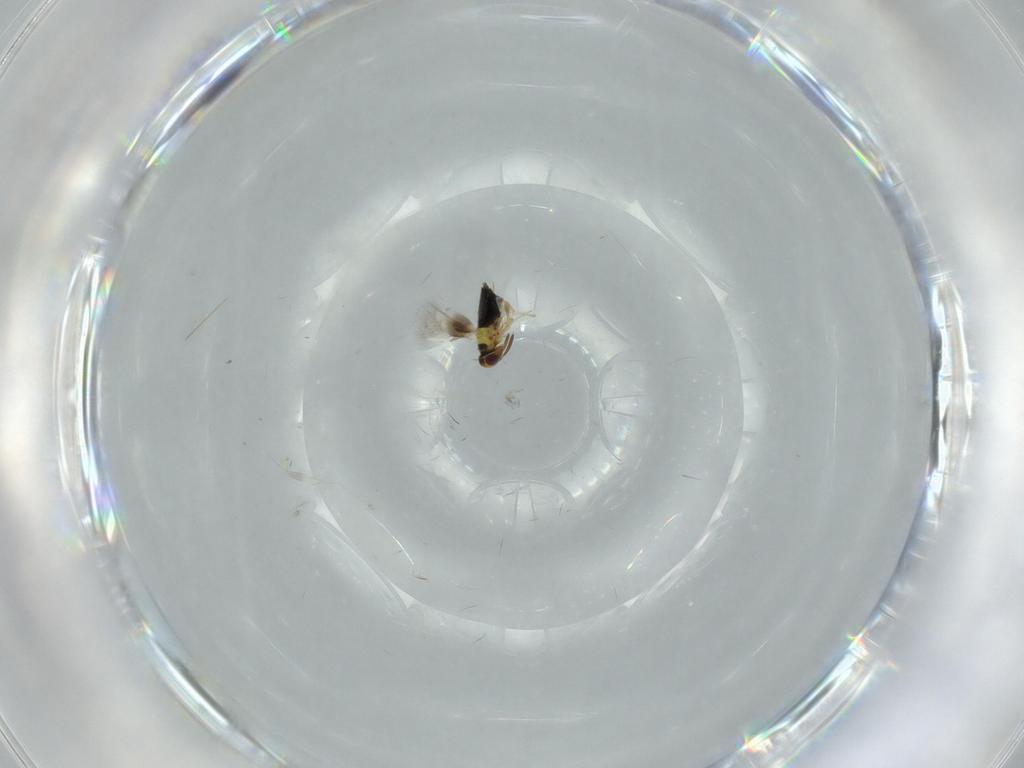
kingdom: Animalia
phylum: Arthropoda
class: Insecta
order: Hymenoptera
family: Signiphoridae
